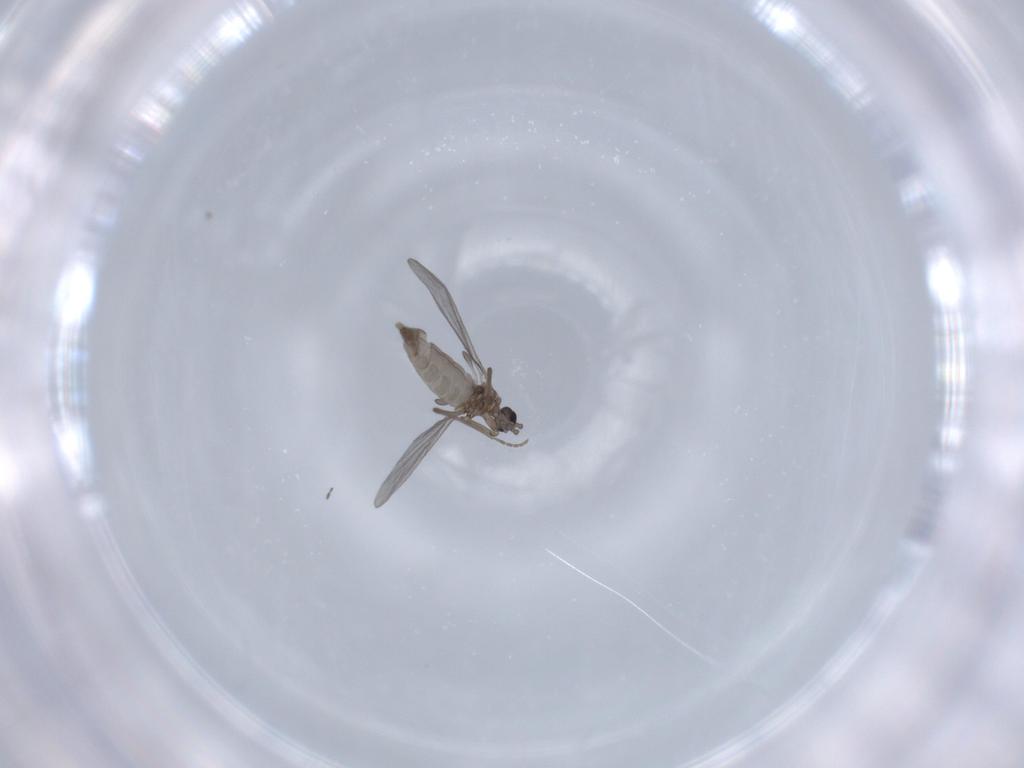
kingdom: Animalia
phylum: Arthropoda
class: Insecta
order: Diptera
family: Ceratopogonidae
